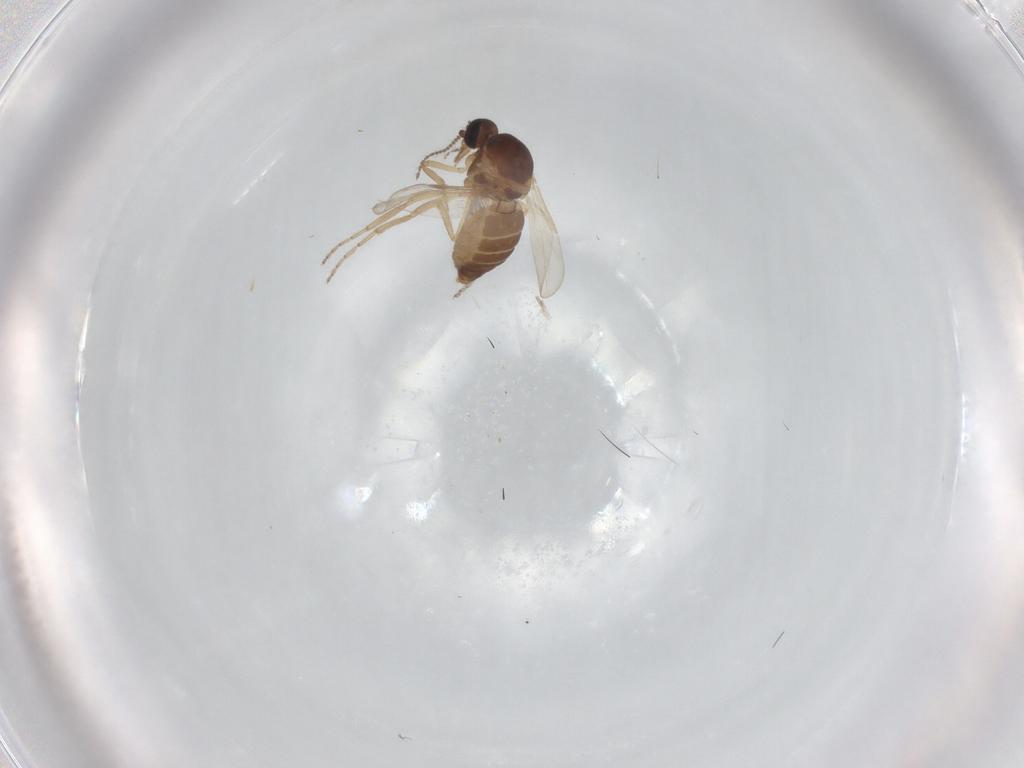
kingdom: Animalia
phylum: Arthropoda
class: Insecta
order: Diptera
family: Ceratopogonidae
